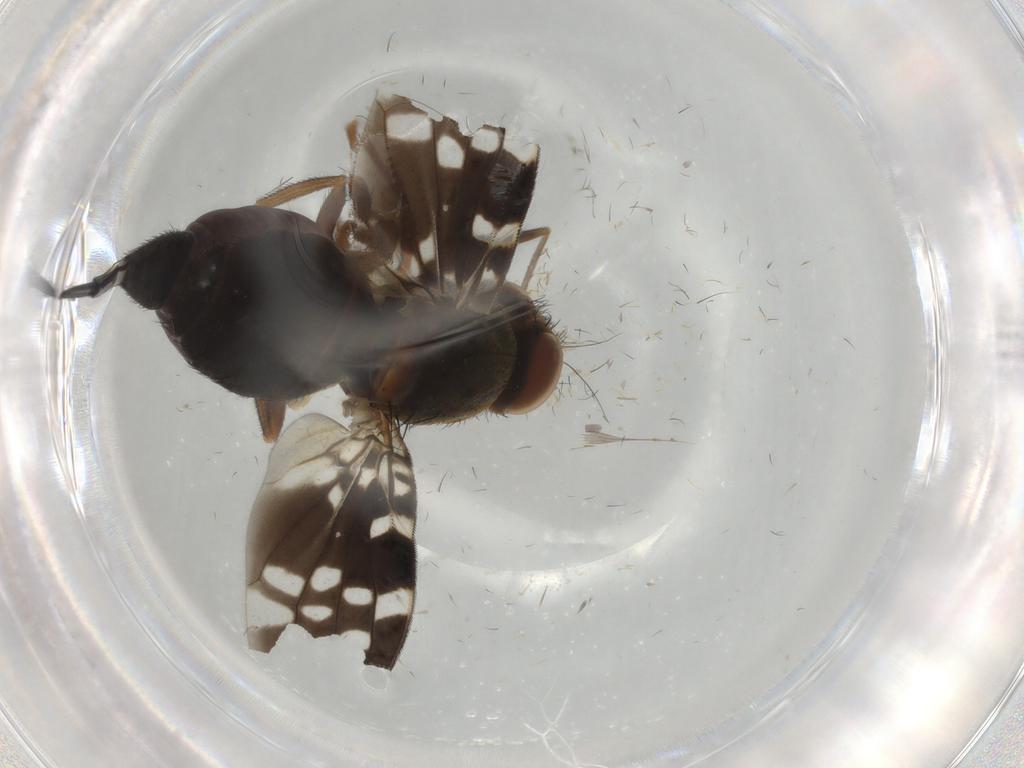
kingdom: Animalia
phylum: Arthropoda
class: Insecta
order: Diptera
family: Ulidiidae
